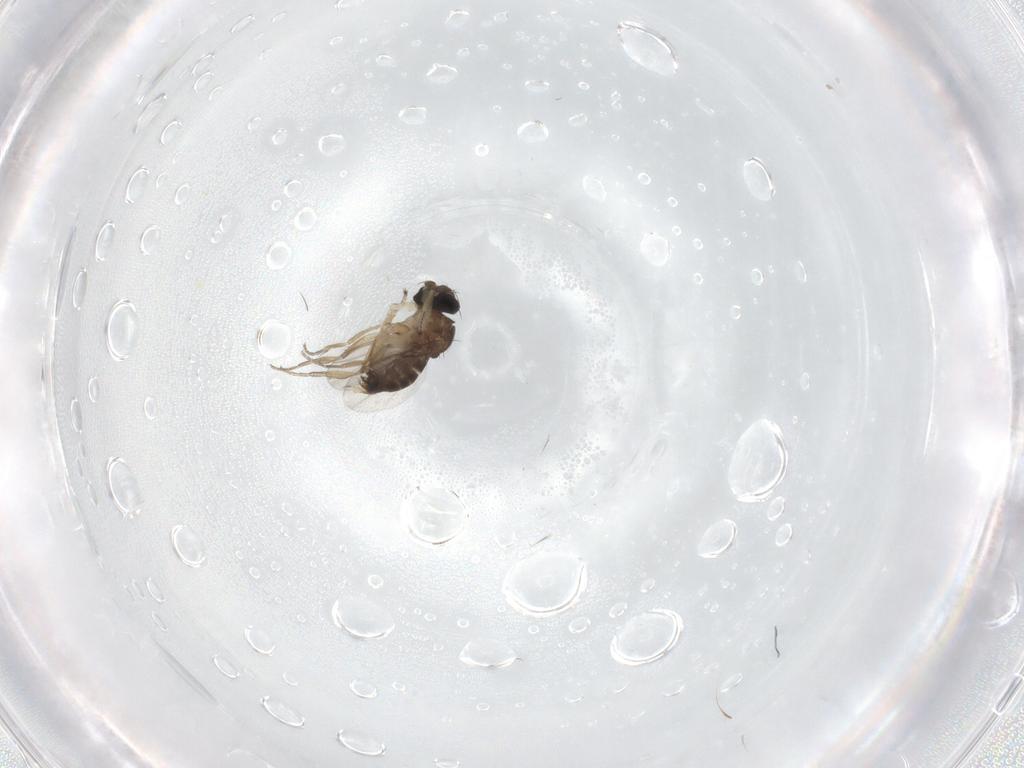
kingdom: Animalia
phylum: Arthropoda
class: Insecta
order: Diptera
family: Phoridae
